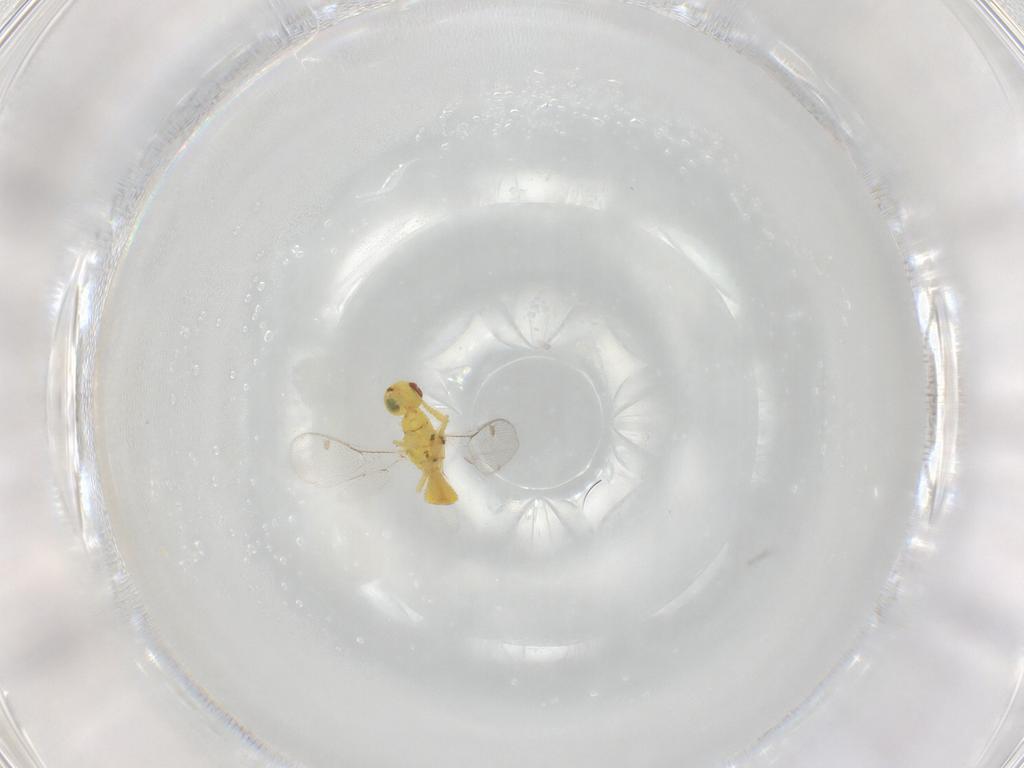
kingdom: Animalia
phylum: Arthropoda
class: Insecta
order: Hymenoptera
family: Megastigmidae
